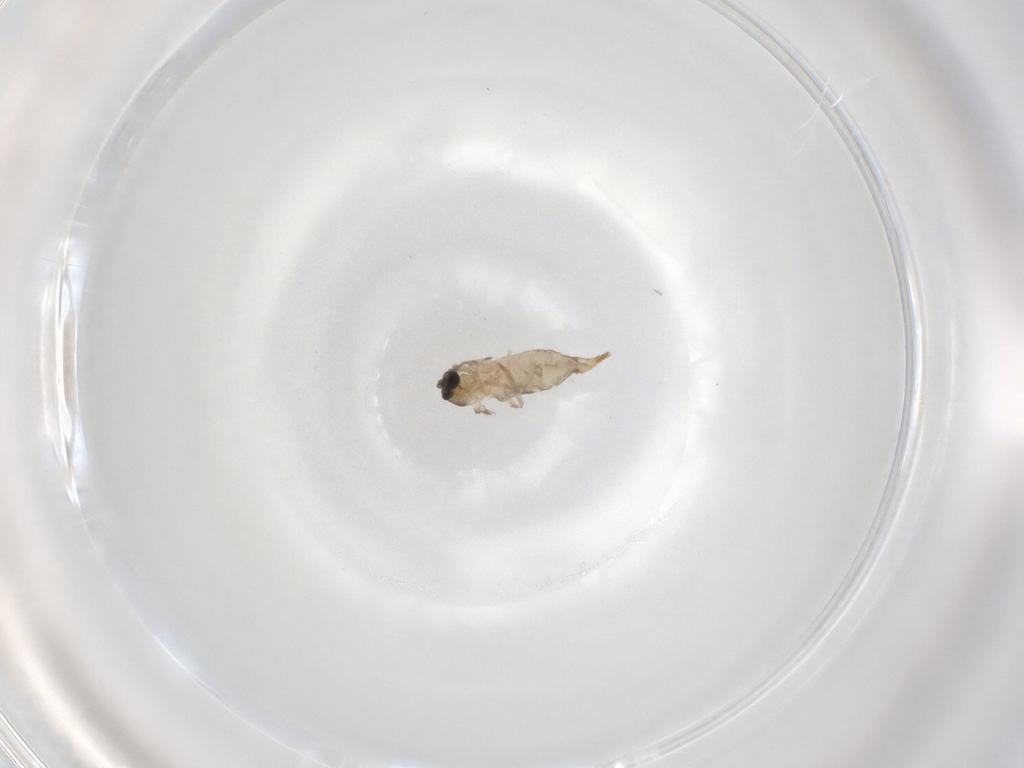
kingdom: Animalia
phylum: Arthropoda
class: Insecta
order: Diptera
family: Cecidomyiidae
